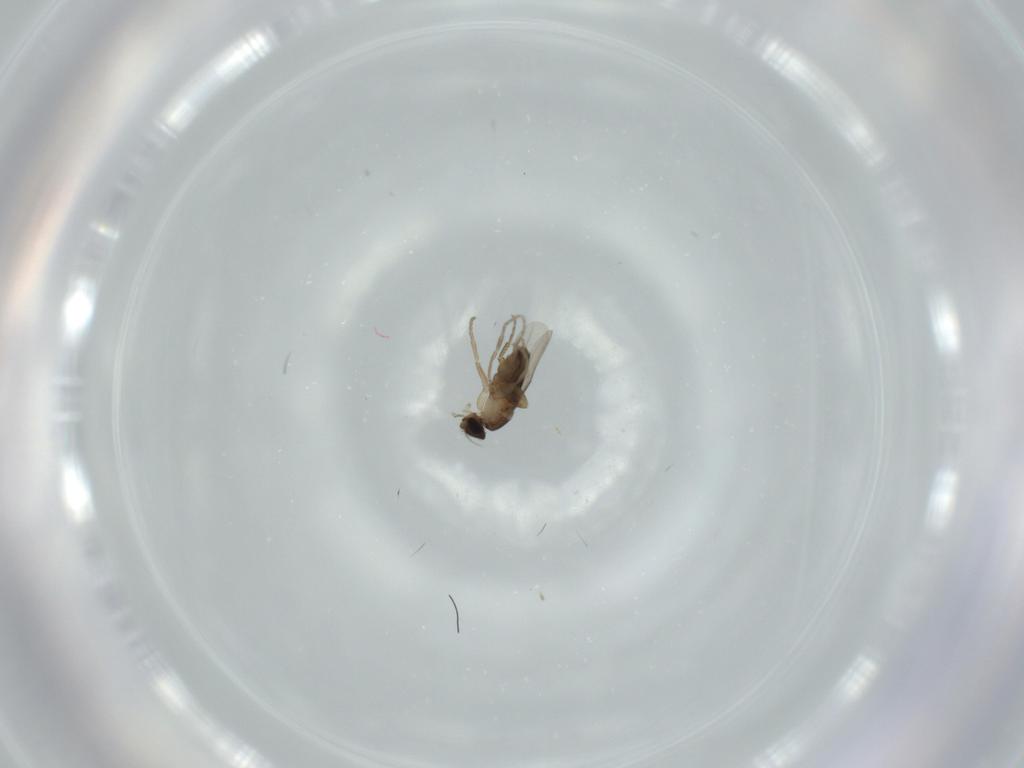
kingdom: Animalia
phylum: Arthropoda
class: Insecta
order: Diptera
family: Phoridae
